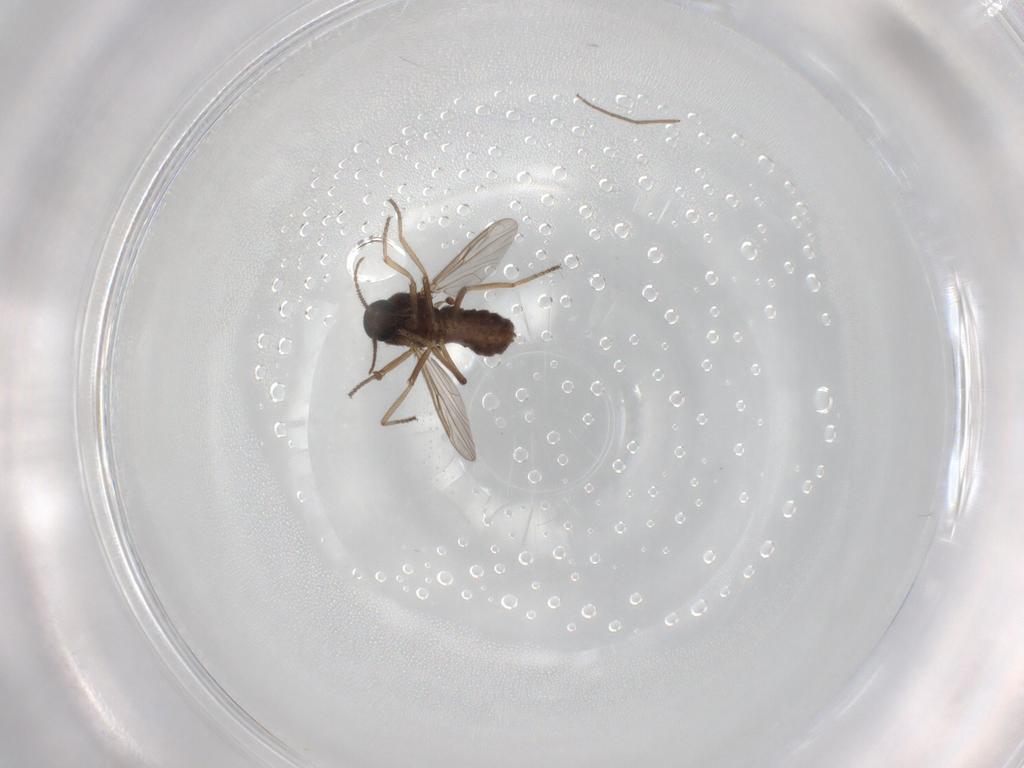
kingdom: Animalia
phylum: Arthropoda
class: Insecta
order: Diptera
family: Ceratopogonidae
